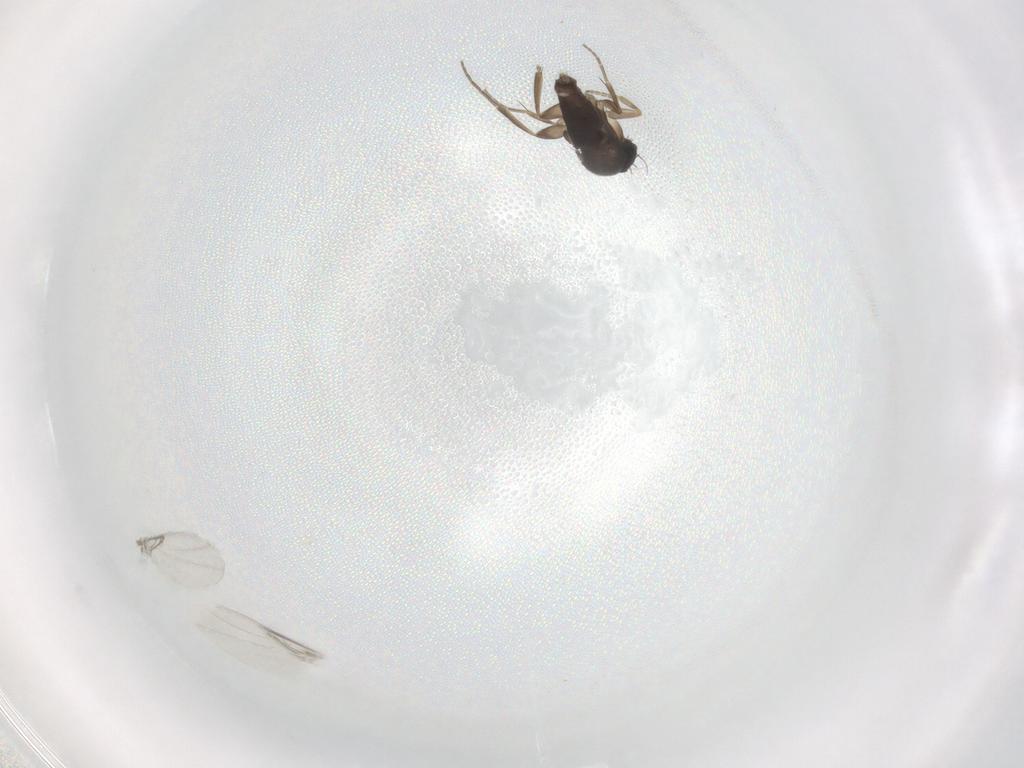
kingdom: Animalia
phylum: Arthropoda
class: Insecta
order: Diptera
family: Phoridae
